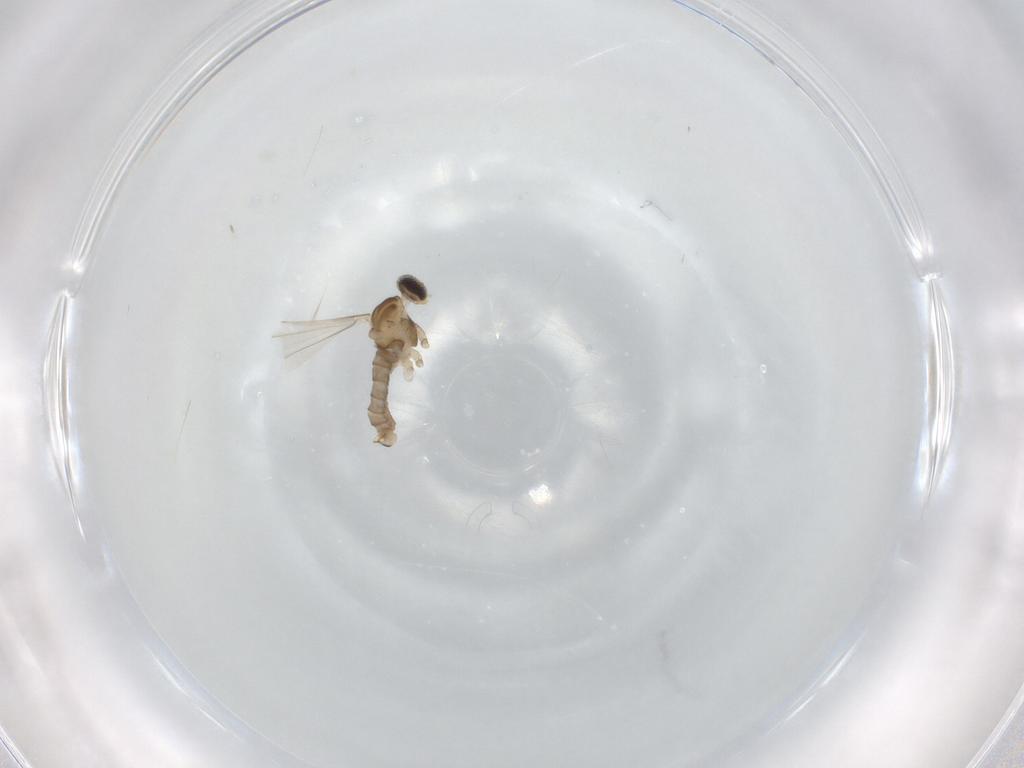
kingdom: Animalia
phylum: Arthropoda
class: Insecta
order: Diptera
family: Cecidomyiidae
